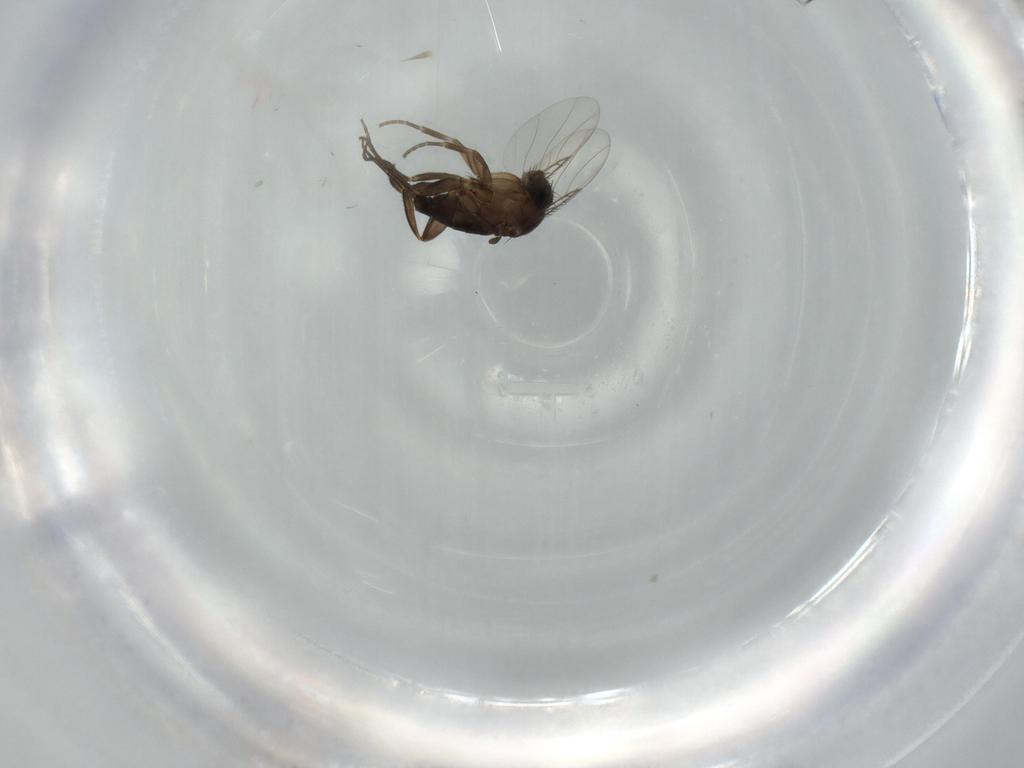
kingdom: Animalia
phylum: Arthropoda
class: Insecta
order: Diptera
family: Phoridae
